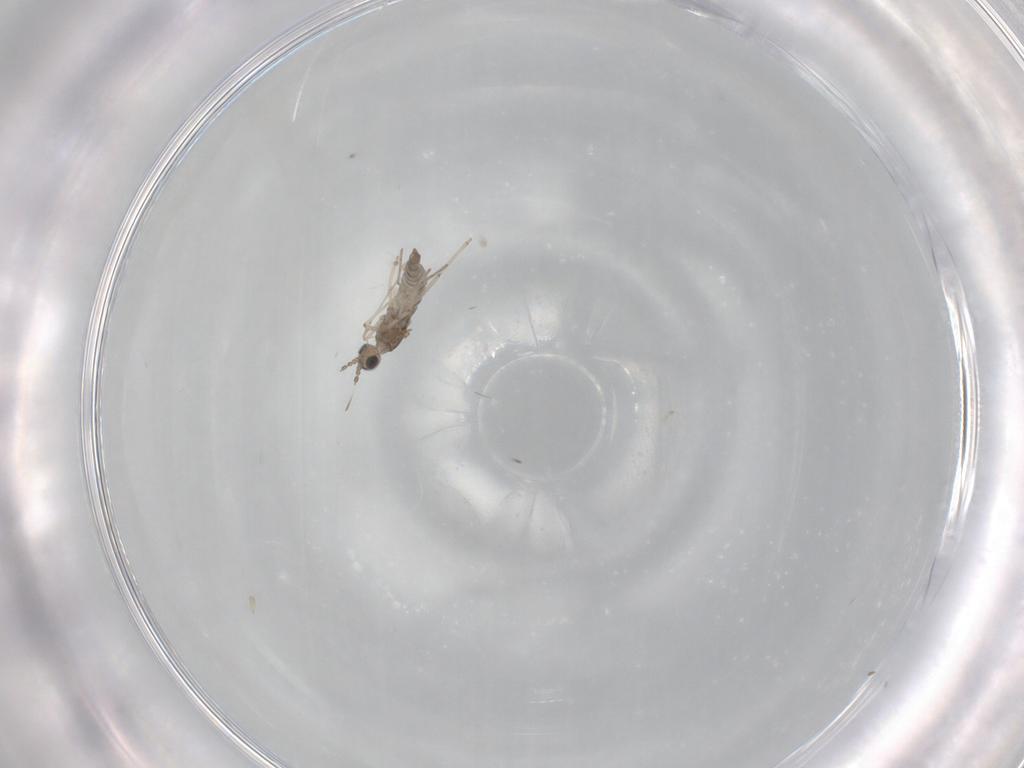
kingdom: Animalia
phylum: Arthropoda
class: Insecta
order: Diptera
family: Cecidomyiidae
